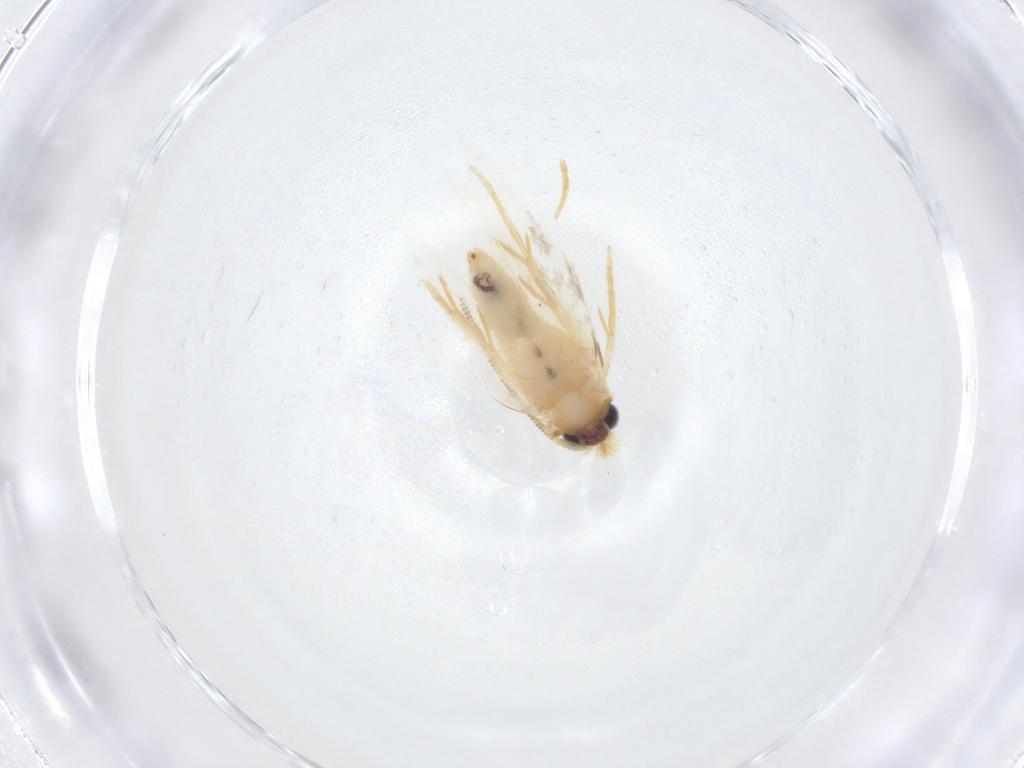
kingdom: Animalia
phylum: Arthropoda
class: Insecta
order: Lepidoptera
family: Nepticulidae
